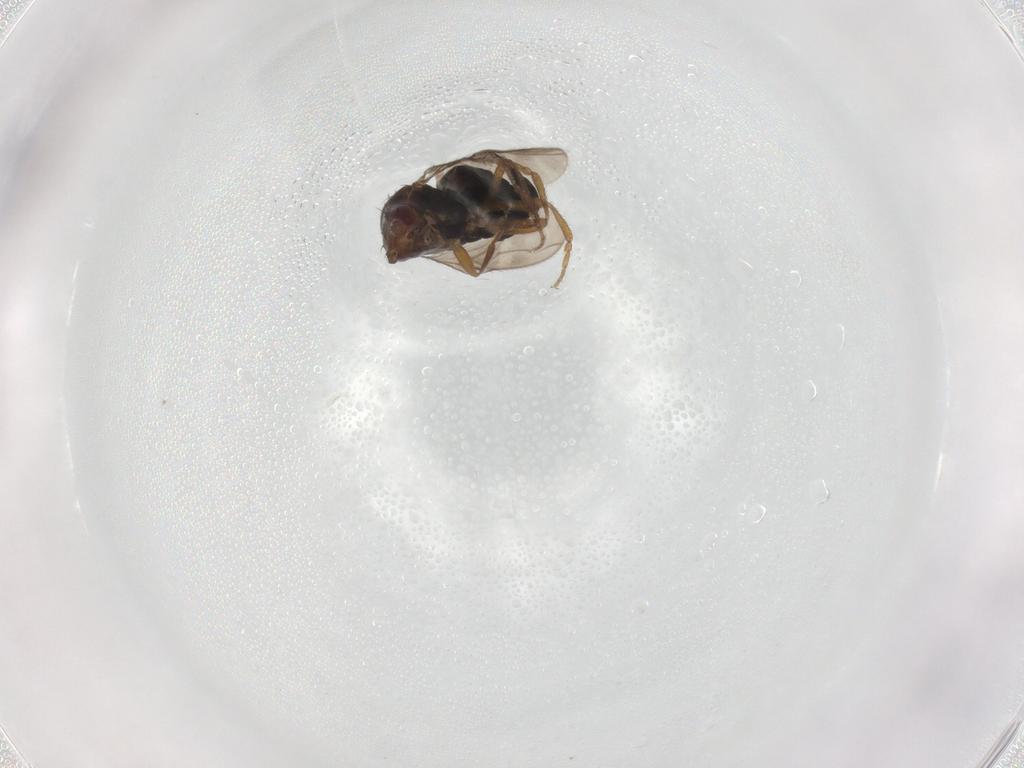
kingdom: Animalia
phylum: Arthropoda
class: Insecta
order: Diptera
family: Sphaeroceridae
